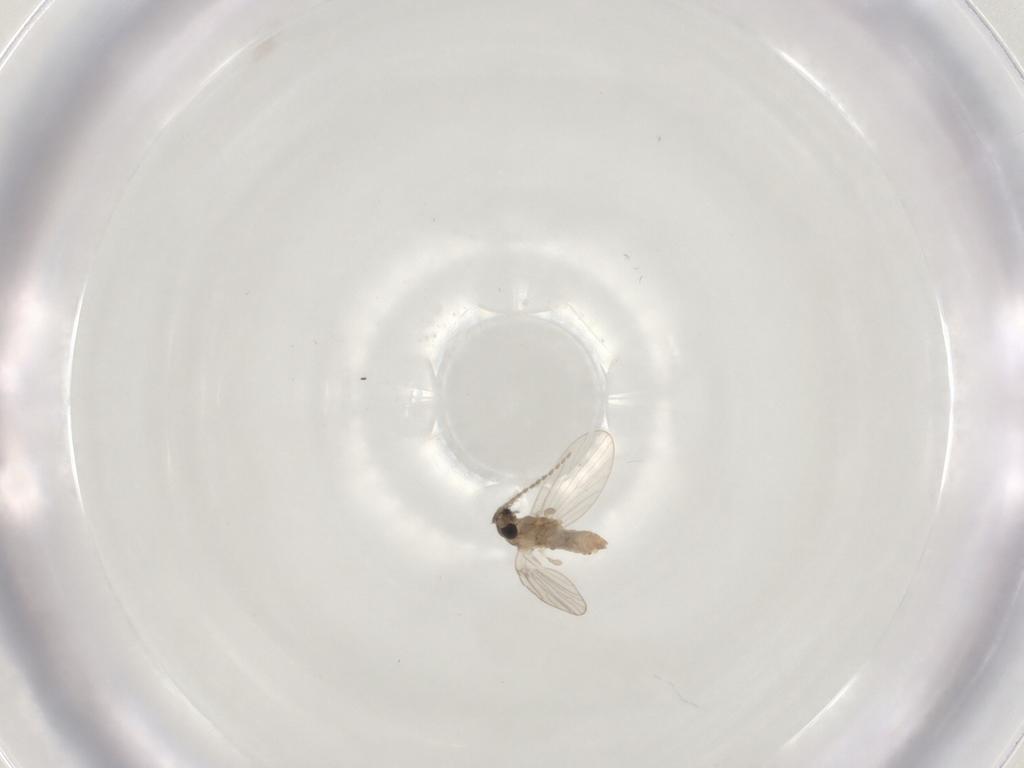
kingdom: Animalia
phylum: Arthropoda
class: Insecta
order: Diptera
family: Psychodidae
